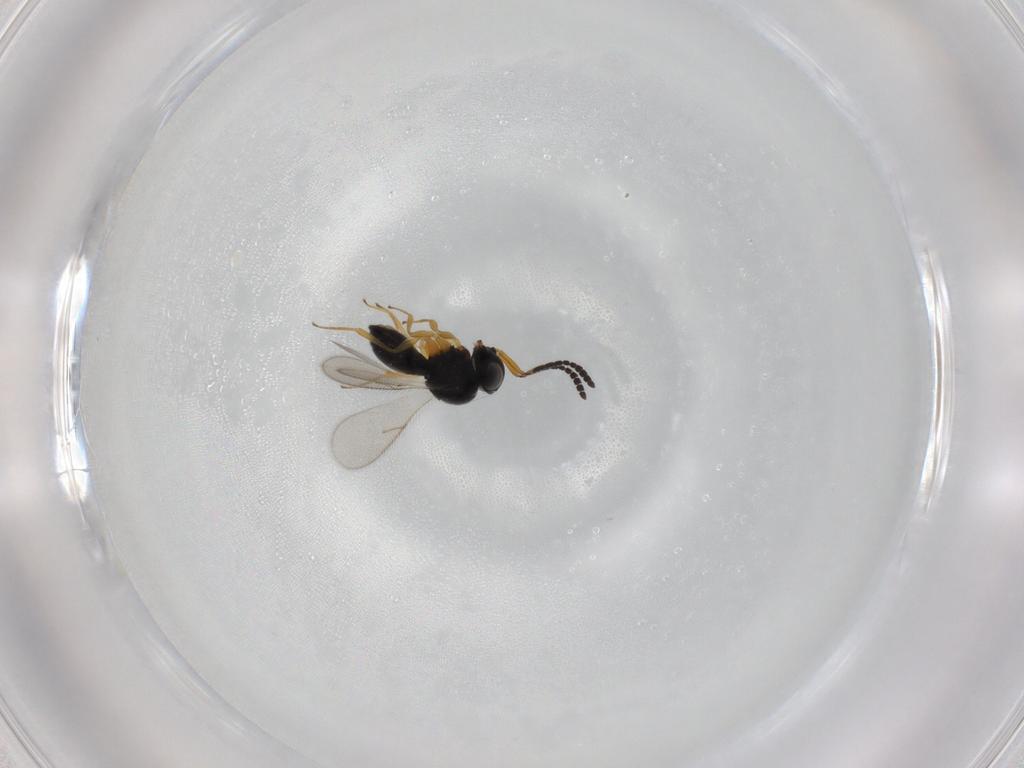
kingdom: Animalia
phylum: Arthropoda
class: Insecta
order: Hymenoptera
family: Scelionidae
